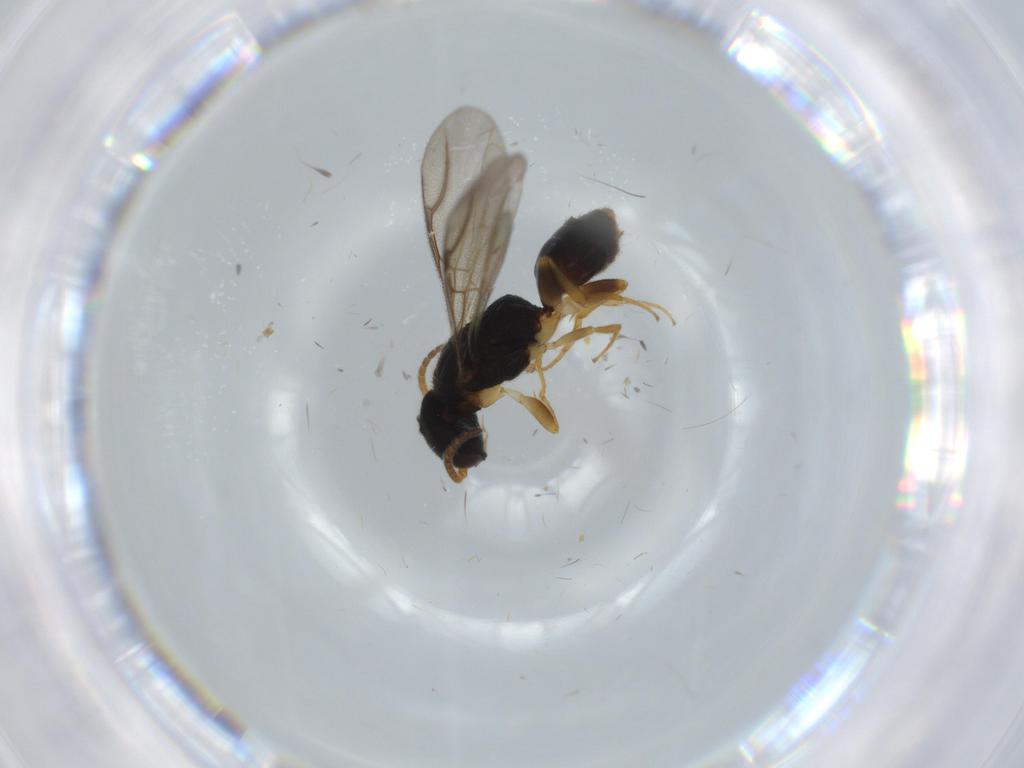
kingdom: Animalia
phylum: Arthropoda
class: Insecta
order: Hymenoptera
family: Bethylidae
